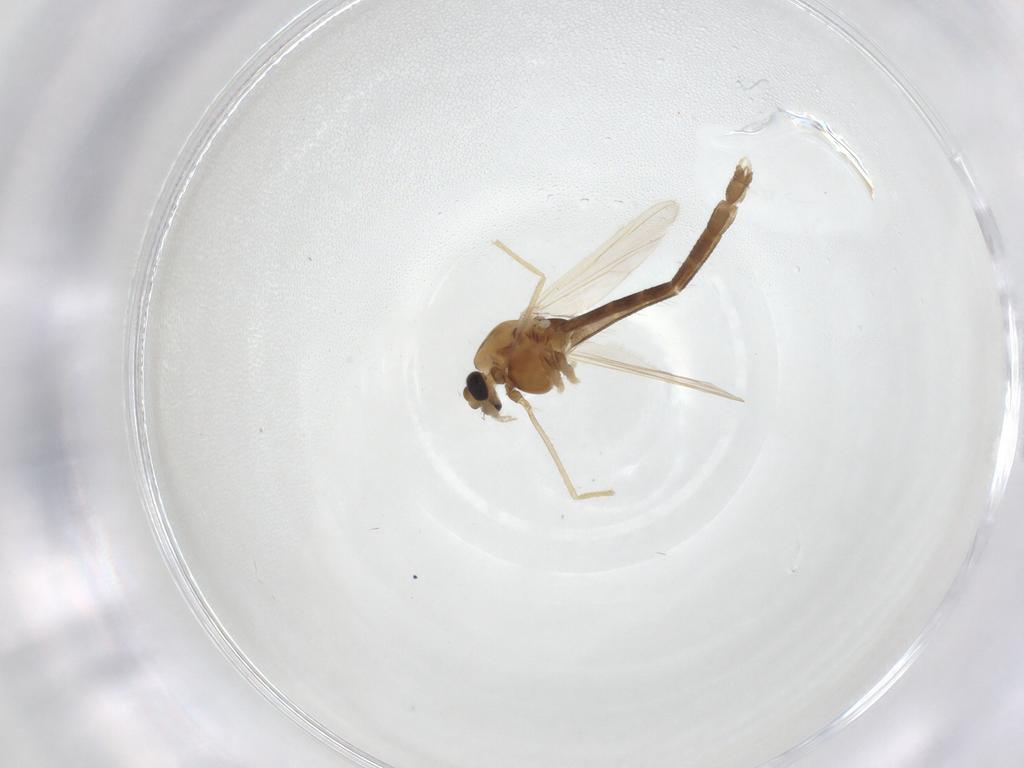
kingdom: Animalia
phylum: Arthropoda
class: Insecta
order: Diptera
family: Chironomidae
